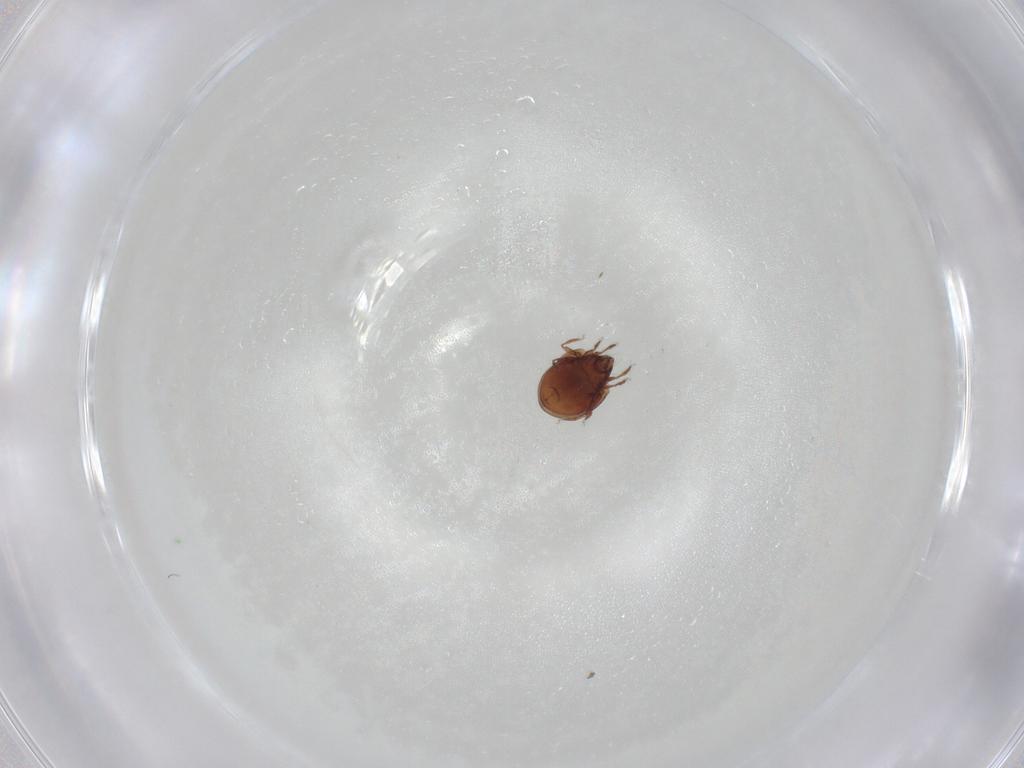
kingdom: Animalia
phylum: Arthropoda
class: Arachnida
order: Sarcoptiformes
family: Mochlozetidae
